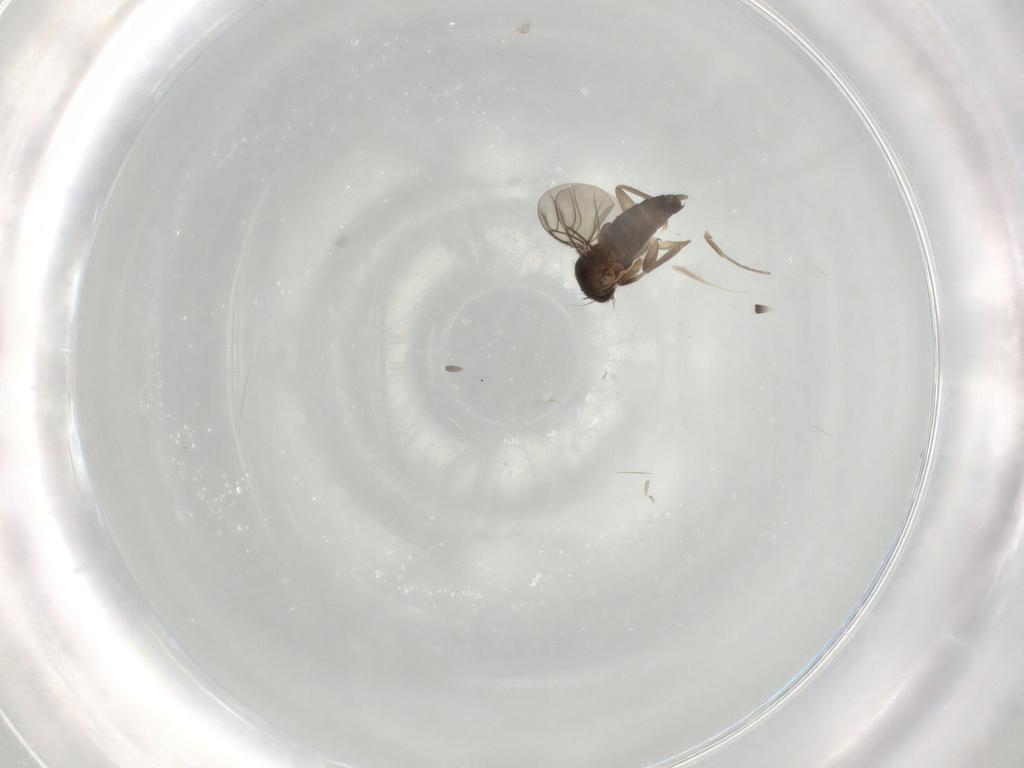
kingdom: Animalia
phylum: Arthropoda
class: Insecta
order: Diptera
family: Phoridae
